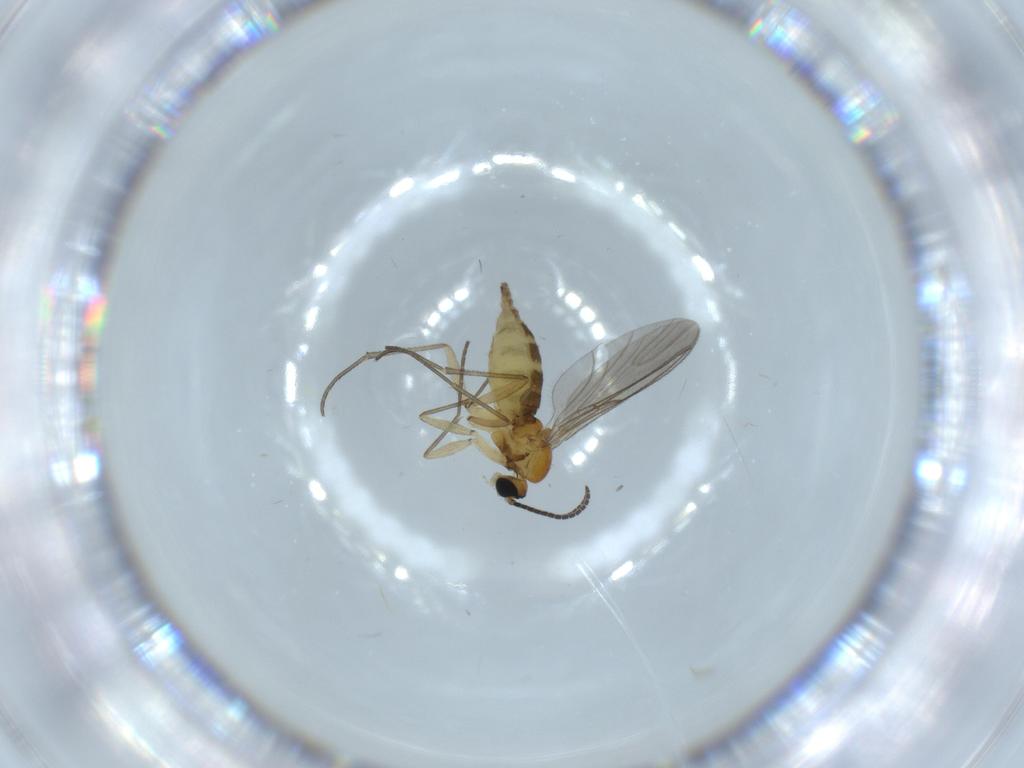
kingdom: Animalia
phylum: Arthropoda
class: Insecta
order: Diptera
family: Cecidomyiidae
